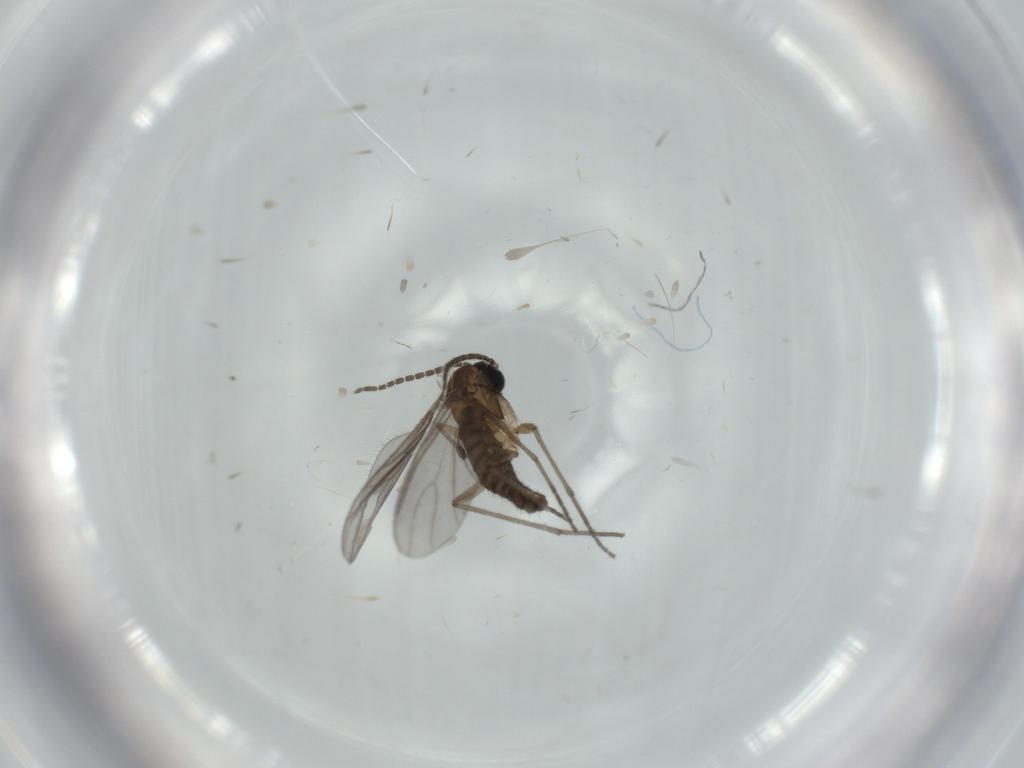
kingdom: Animalia
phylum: Arthropoda
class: Insecta
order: Diptera
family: Sciaridae
